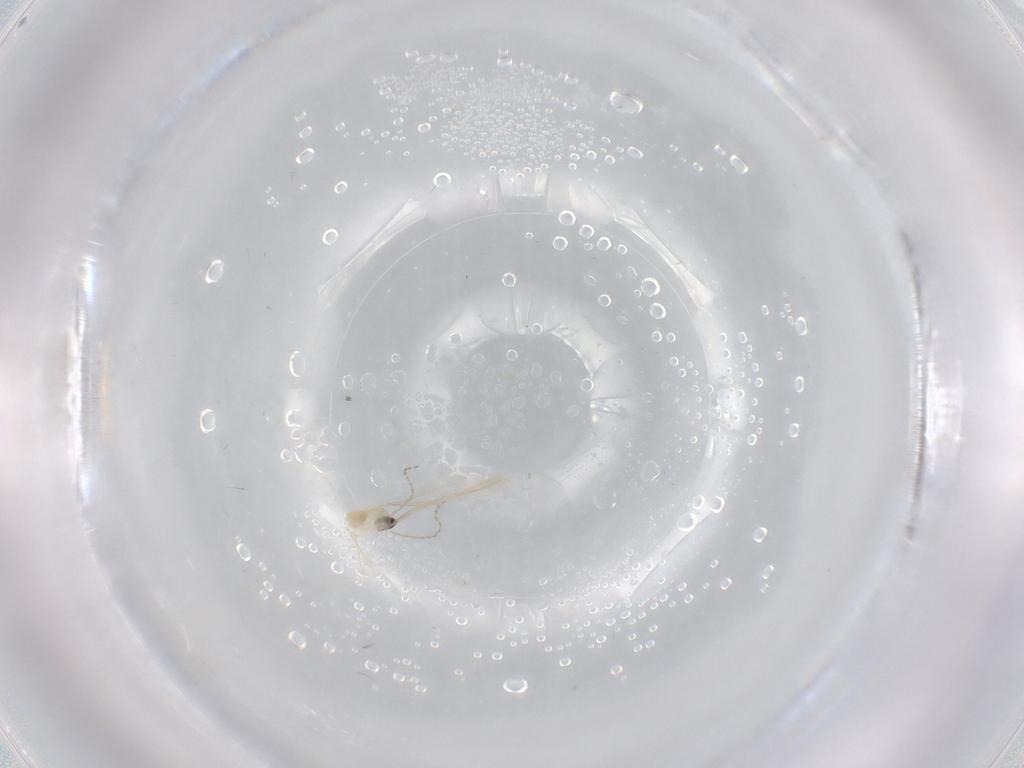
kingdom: Animalia
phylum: Arthropoda
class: Insecta
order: Diptera
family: Cecidomyiidae
